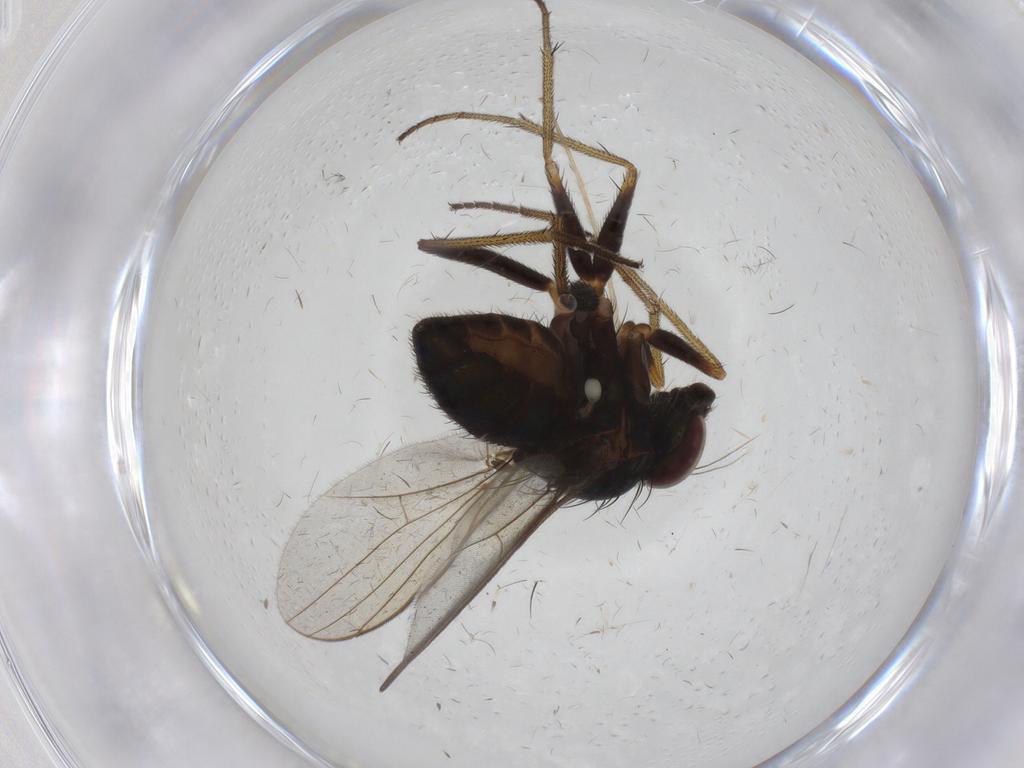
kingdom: Animalia
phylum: Arthropoda
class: Insecta
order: Diptera
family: Chironomidae
